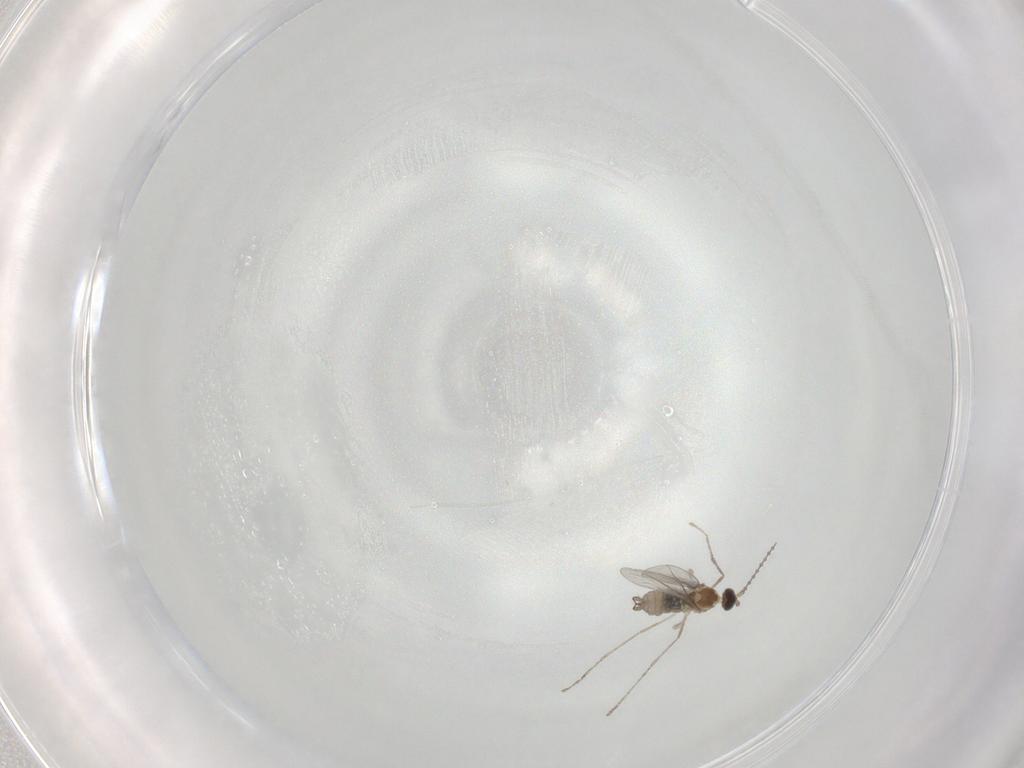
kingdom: Animalia
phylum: Arthropoda
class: Insecta
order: Diptera
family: Cecidomyiidae
